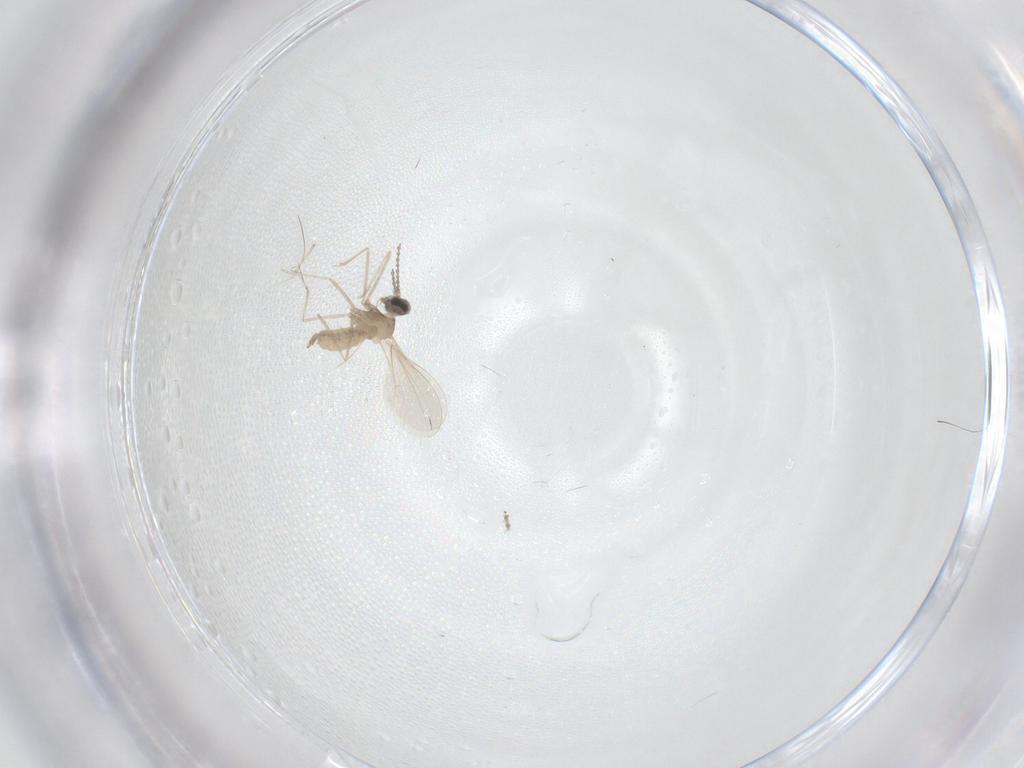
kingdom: Animalia
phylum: Arthropoda
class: Insecta
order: Diptera
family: Cecidomyiidae
